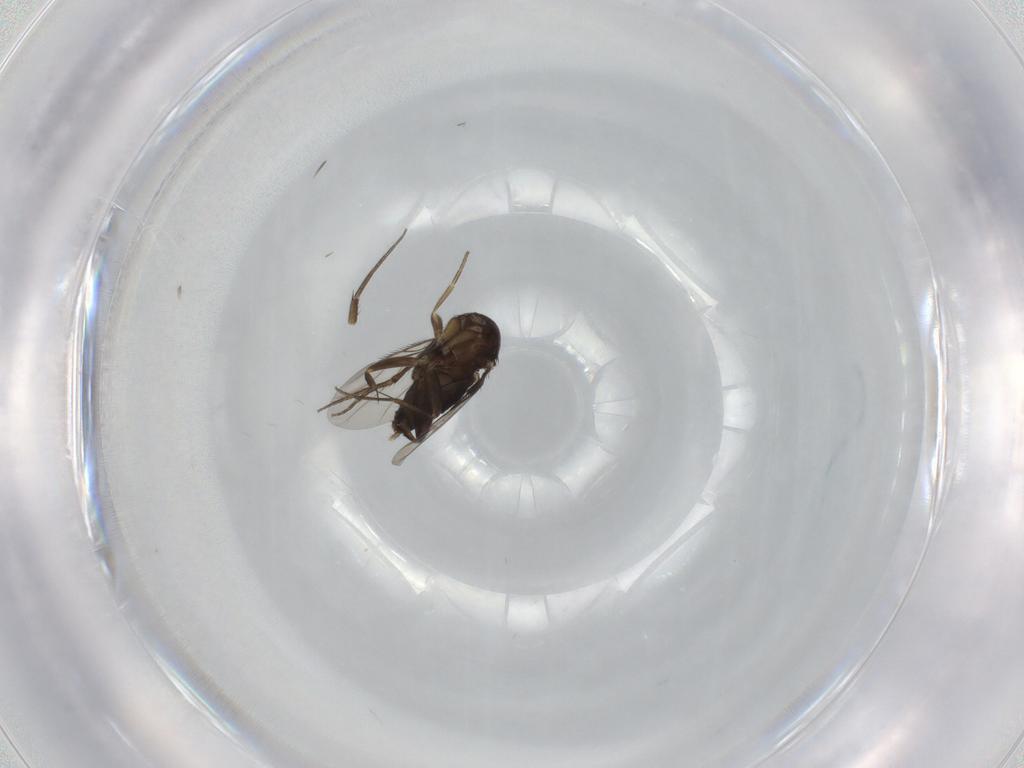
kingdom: Animalia
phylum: Arthropoda
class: Insecta
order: Diptera
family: Phoridae
